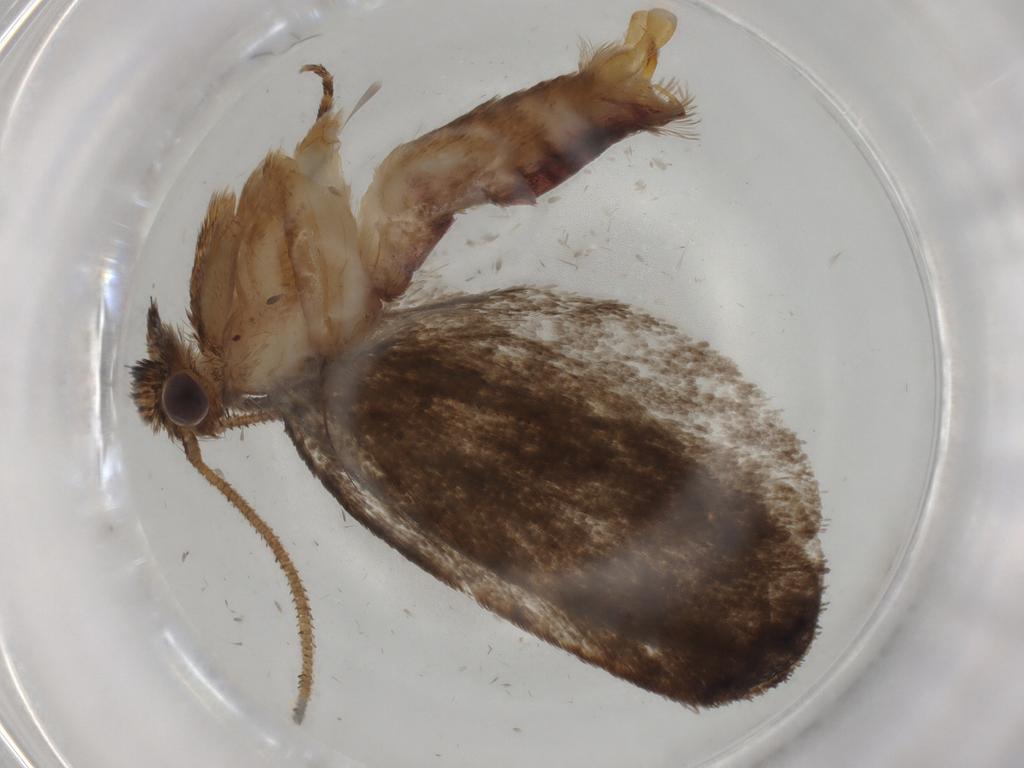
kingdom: Animalia
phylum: Arthropoda
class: Insecta
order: Lepidoptera
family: Tineidae
